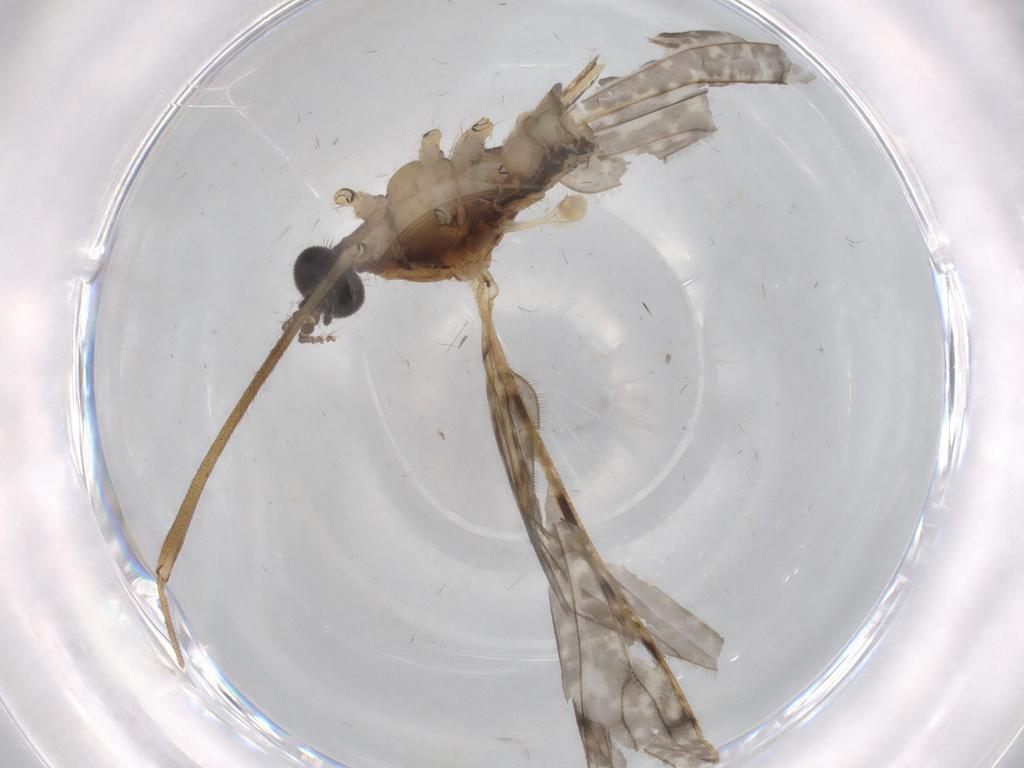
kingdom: Animalia
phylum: Arthropoda
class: Insecta
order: Diptera
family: Limoniidae
